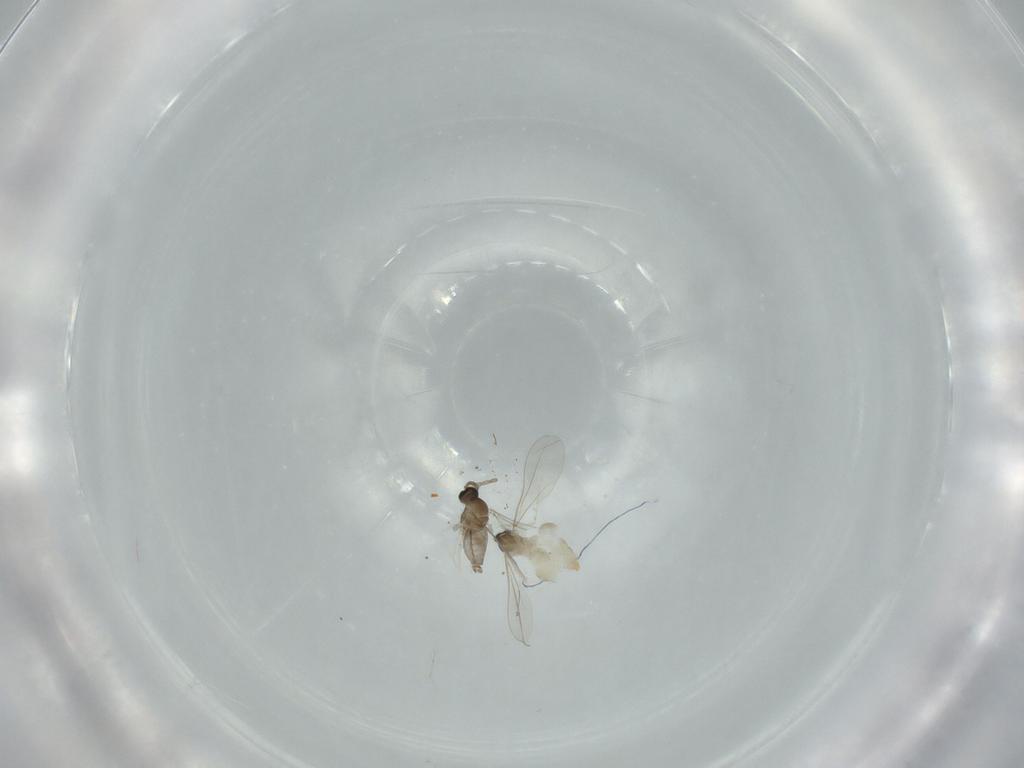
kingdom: Animalia
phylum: Arthropoda
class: Insecta
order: Diptera
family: Cecidomyiidae
